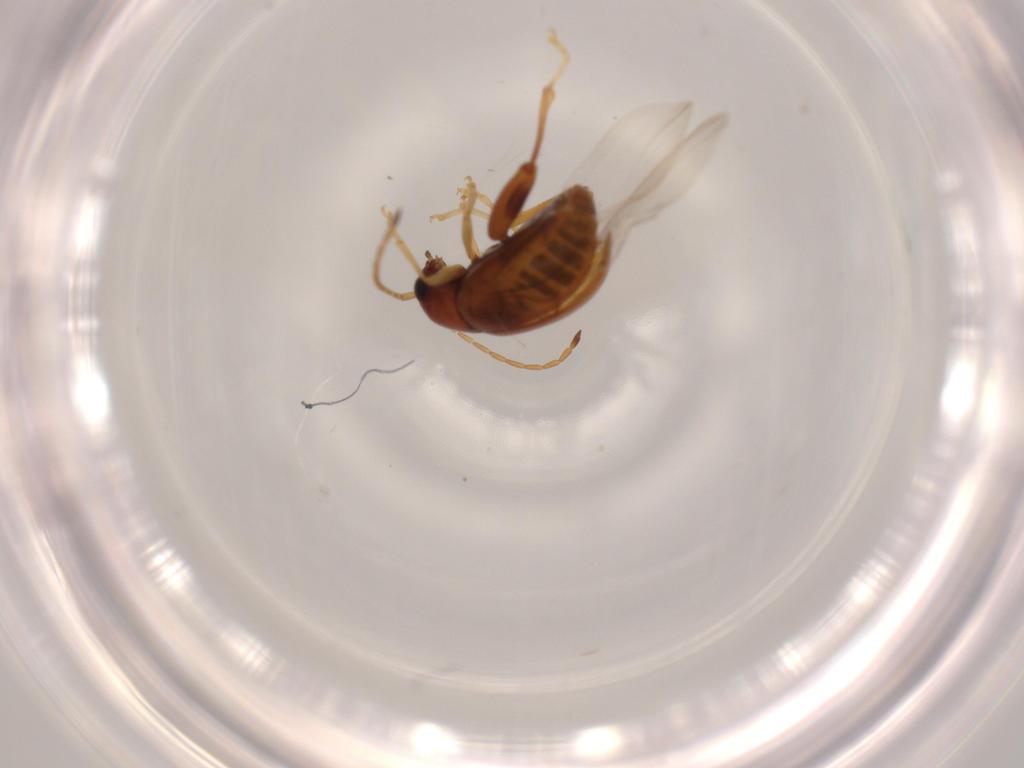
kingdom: Animalia
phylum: Arthropoda
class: Insecta
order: Coleoptera
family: Chrysomelidae
